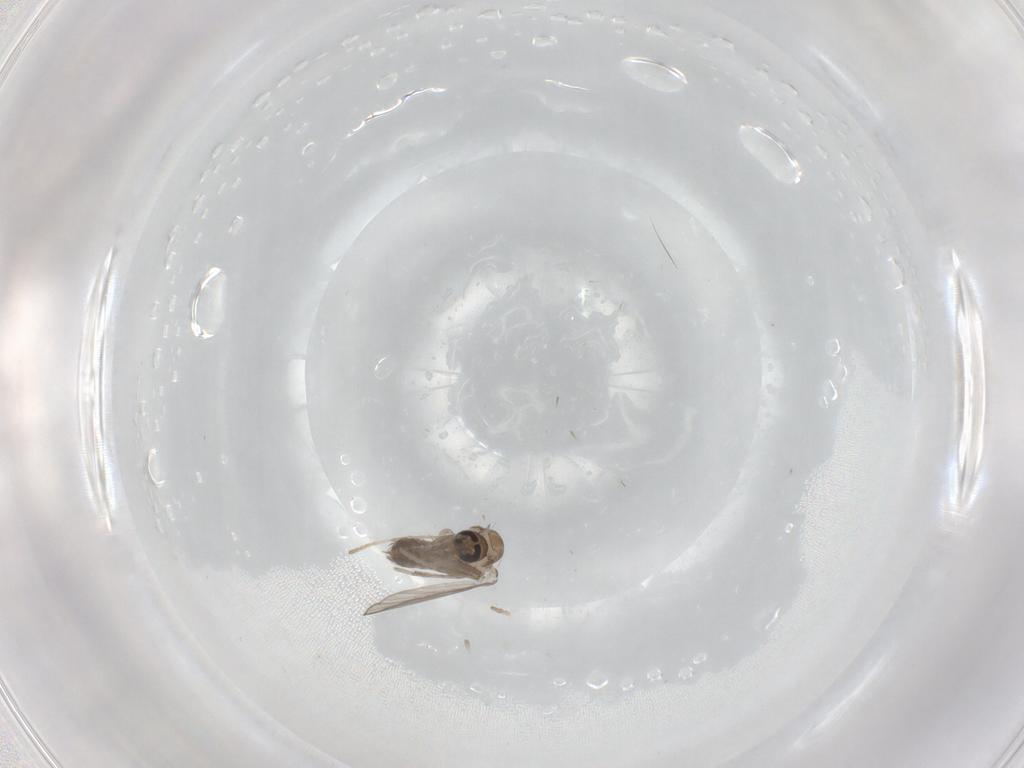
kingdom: Animalia
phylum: Arthropoda
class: Insecta
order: Diptera
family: Psychodidae
